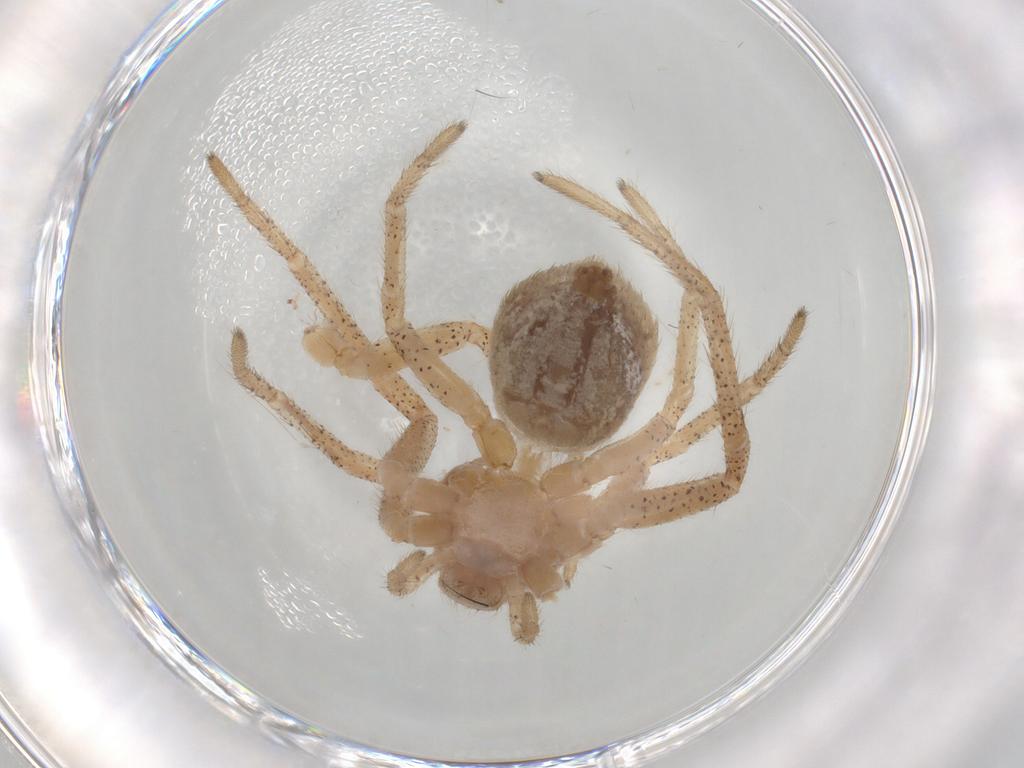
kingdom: Animalia
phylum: Arthropoda
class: Arachnida
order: Araneae
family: Philodromidae
